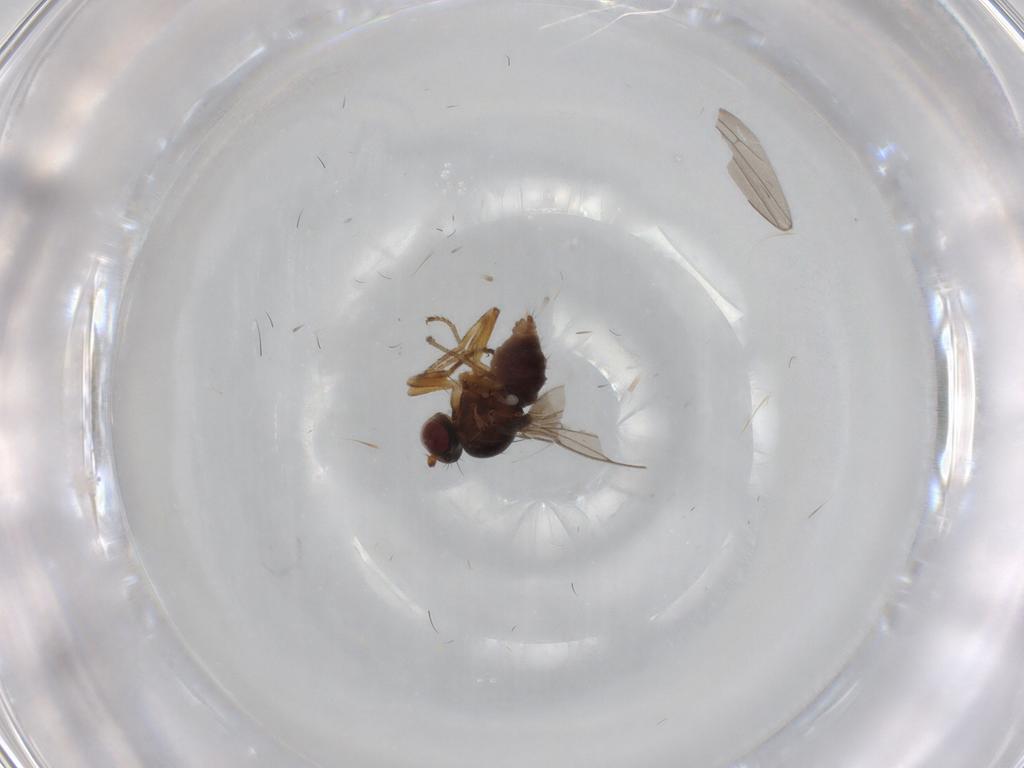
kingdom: Animalia
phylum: Arthropoda
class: Insecta
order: Diptera
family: Ephydridae
